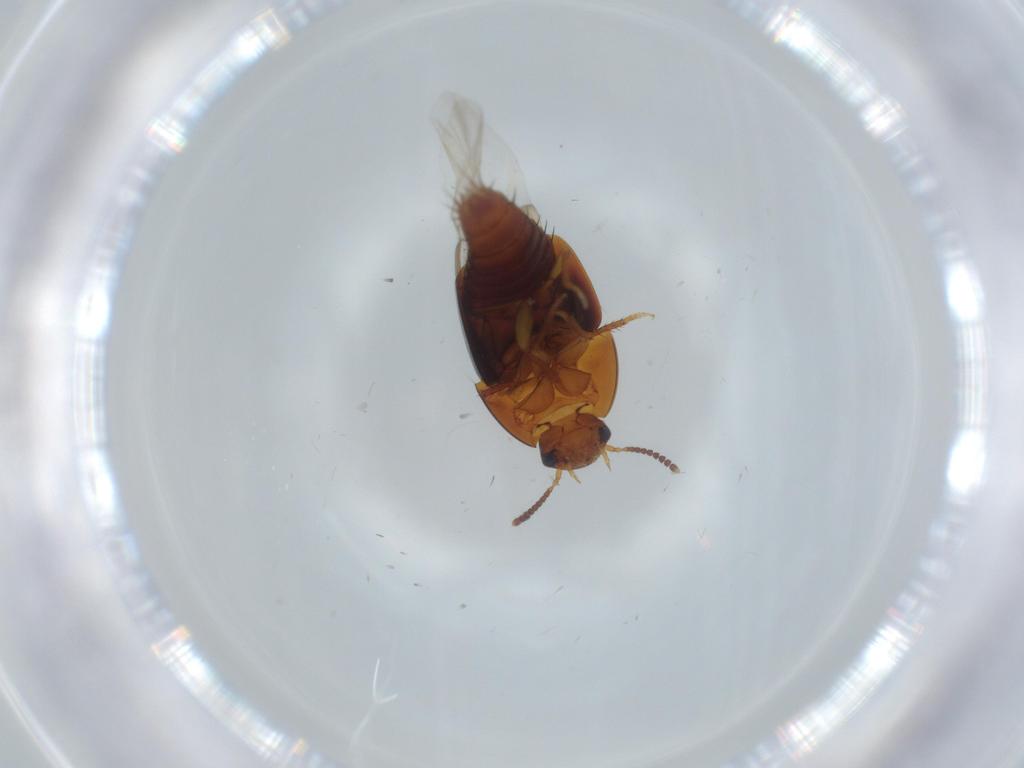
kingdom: Animalia
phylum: Arthropoda
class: Insecta
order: Coleoptera
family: Staphylinidae
